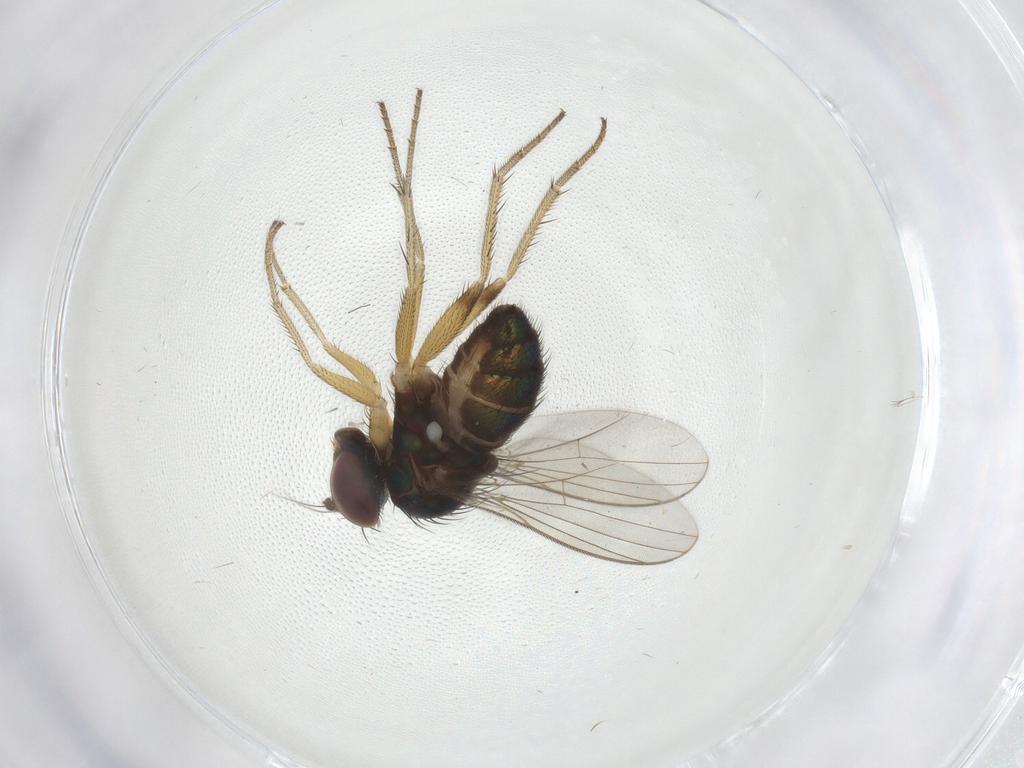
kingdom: Animalia
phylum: Arthropoda
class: Insecta
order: Diptera
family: Dolichopodidae
